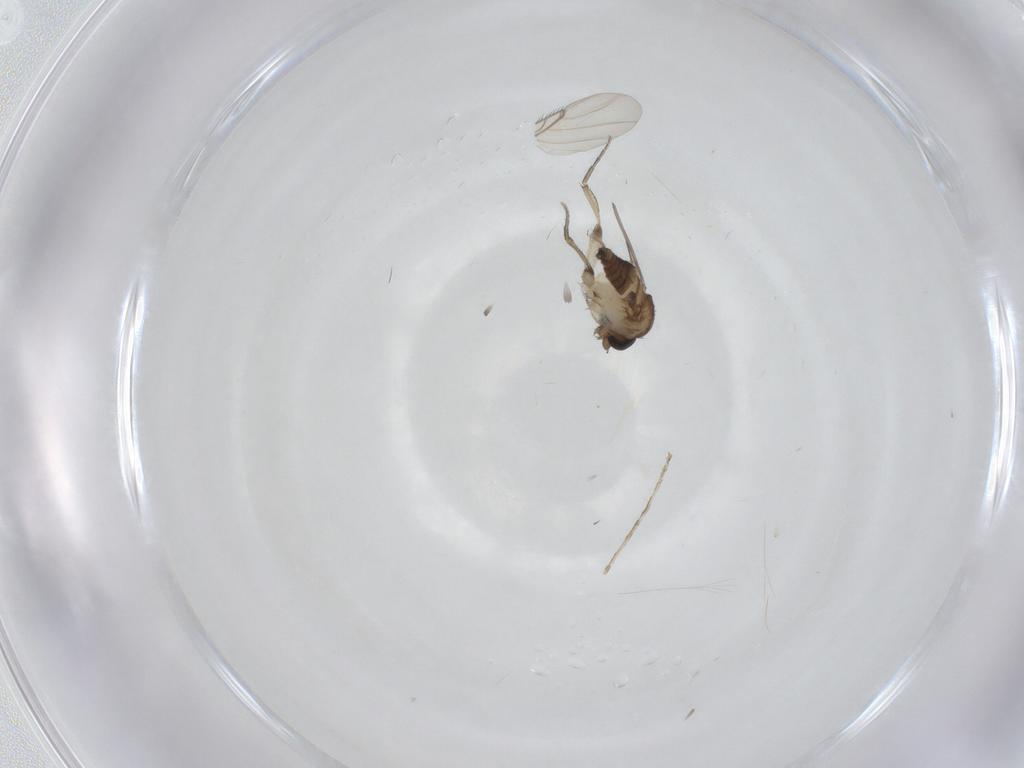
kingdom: Animalia
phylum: Arthropoda
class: Insecta
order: Diptera
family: Cecidomyiidae
